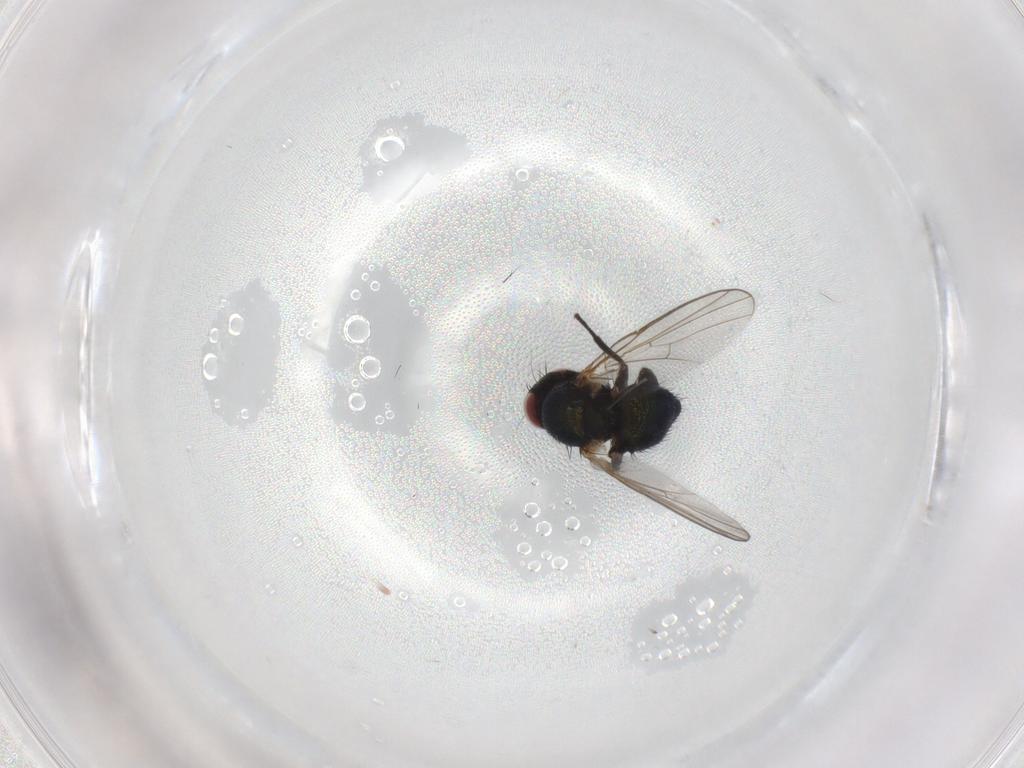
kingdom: Animalia
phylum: Arthropoda
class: Insecta
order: Diptera
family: Agromyzidae
